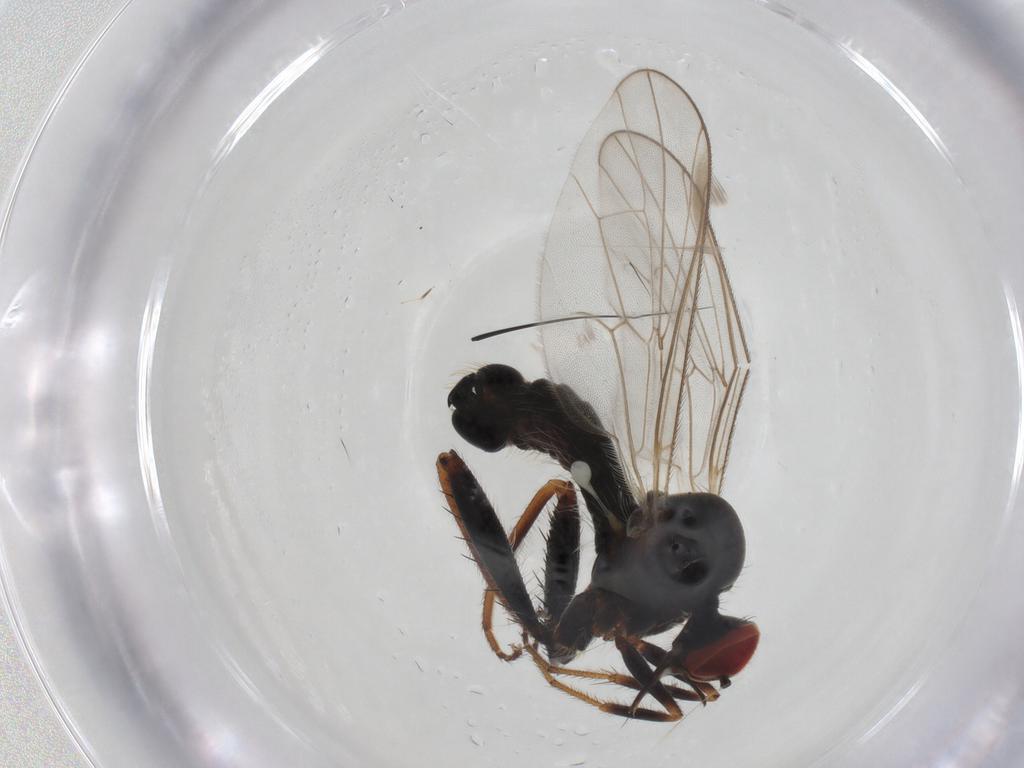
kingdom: Animalia
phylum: Arthropoda
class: Insecta
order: Diptera
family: Hybotidae
